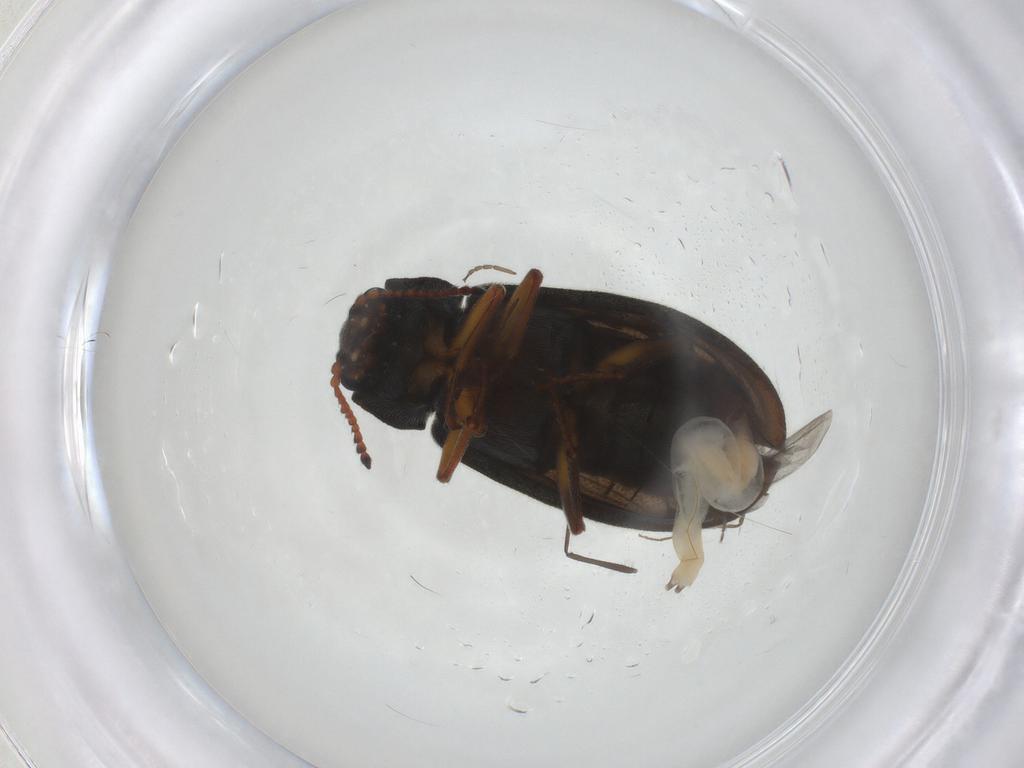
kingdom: Animalia
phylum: Arthropoda
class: Insecta
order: Coleoptera
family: Melyridae
